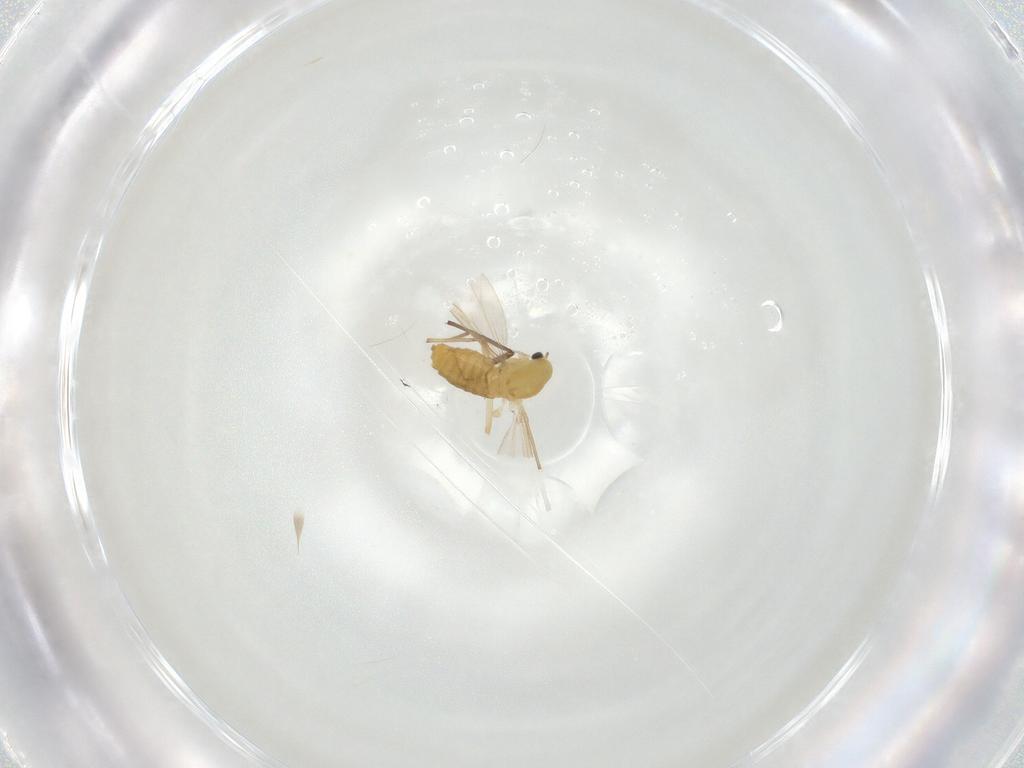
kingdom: Animalia
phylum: Arthropoda
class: Insecta
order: Diptera
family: Chironomidae
